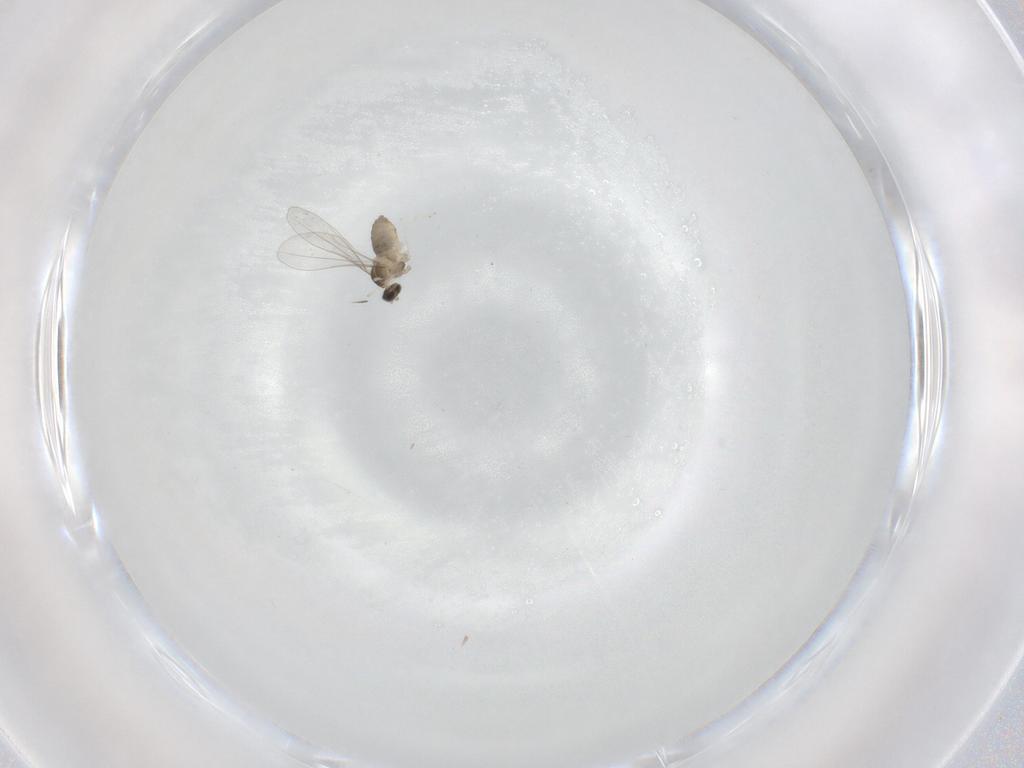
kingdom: Animalia
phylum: Arthropoda
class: Insecta
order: Diptera
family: Cecidomyiidae
